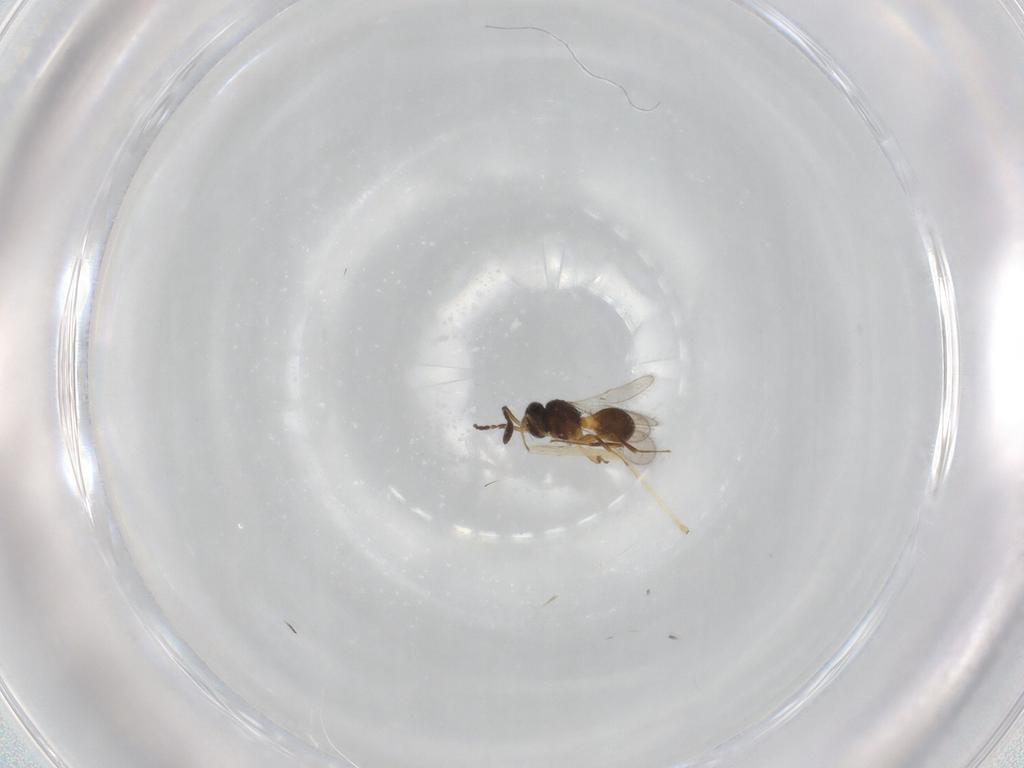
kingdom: Animalia
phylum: Arthropoda
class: Insecta
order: Hymenoptera
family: Scelionidae
